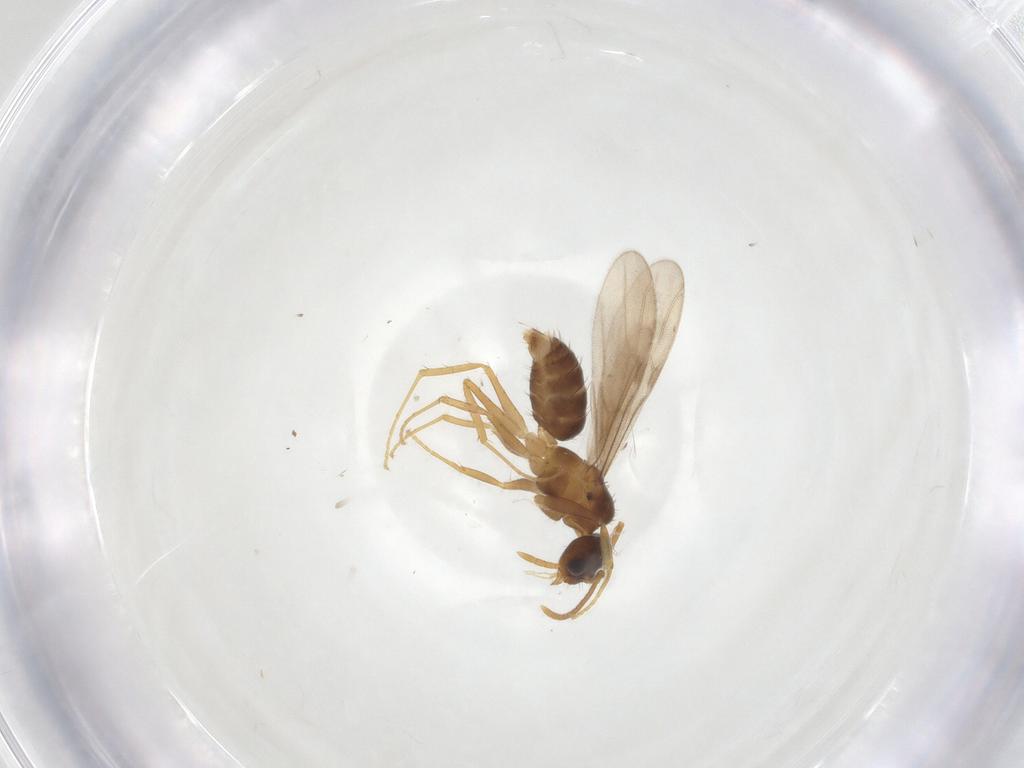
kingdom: Animalia
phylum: Arthropoda
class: Insecta
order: Hymenoptera
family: Formicidae
